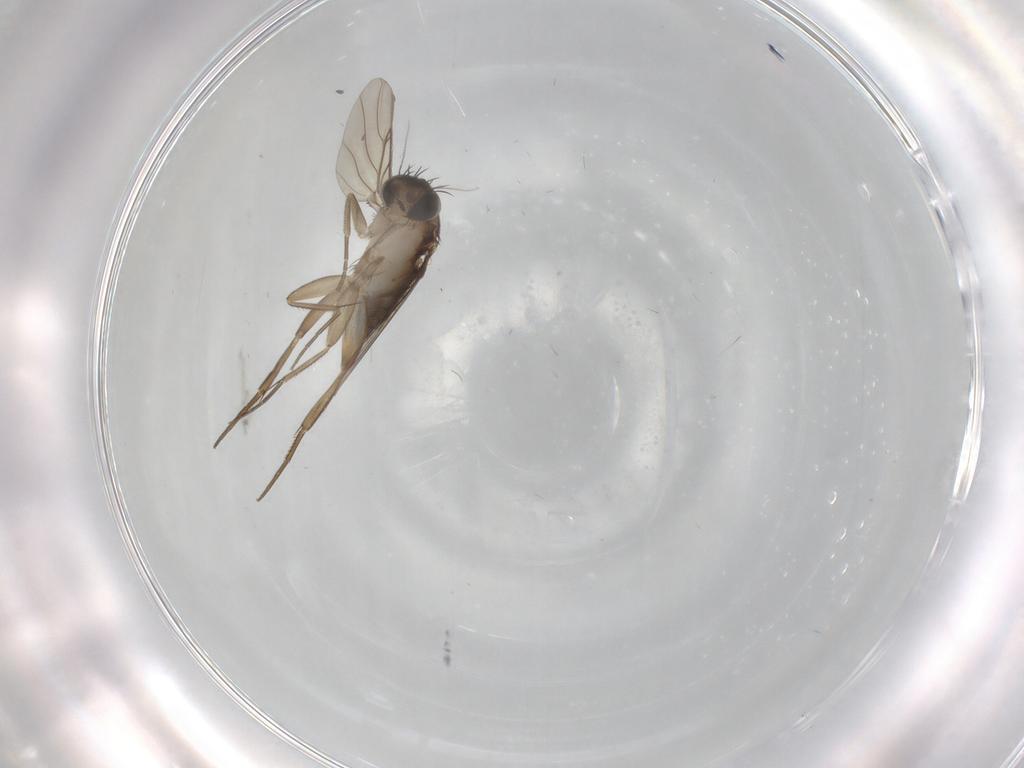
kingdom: Animalia
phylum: Arthropoda
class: Insecta
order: Diptera
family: Phoridae
